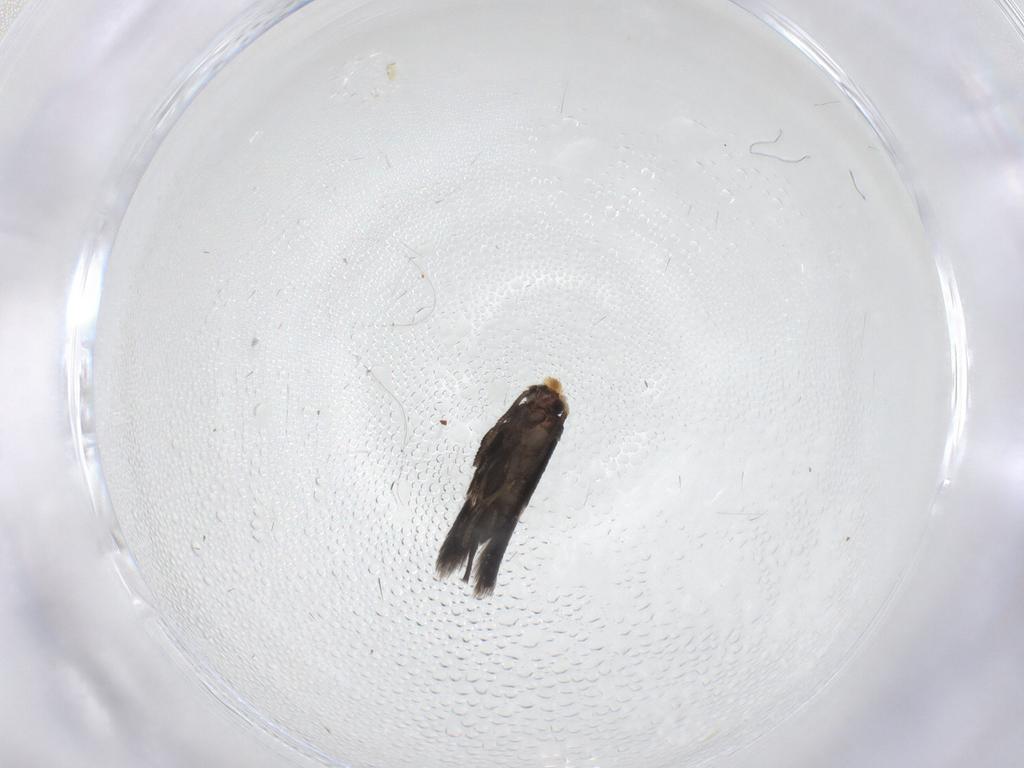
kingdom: Animalia
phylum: Arthropoda
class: Insecta
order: Lepidoptera
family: Nepticulidae
